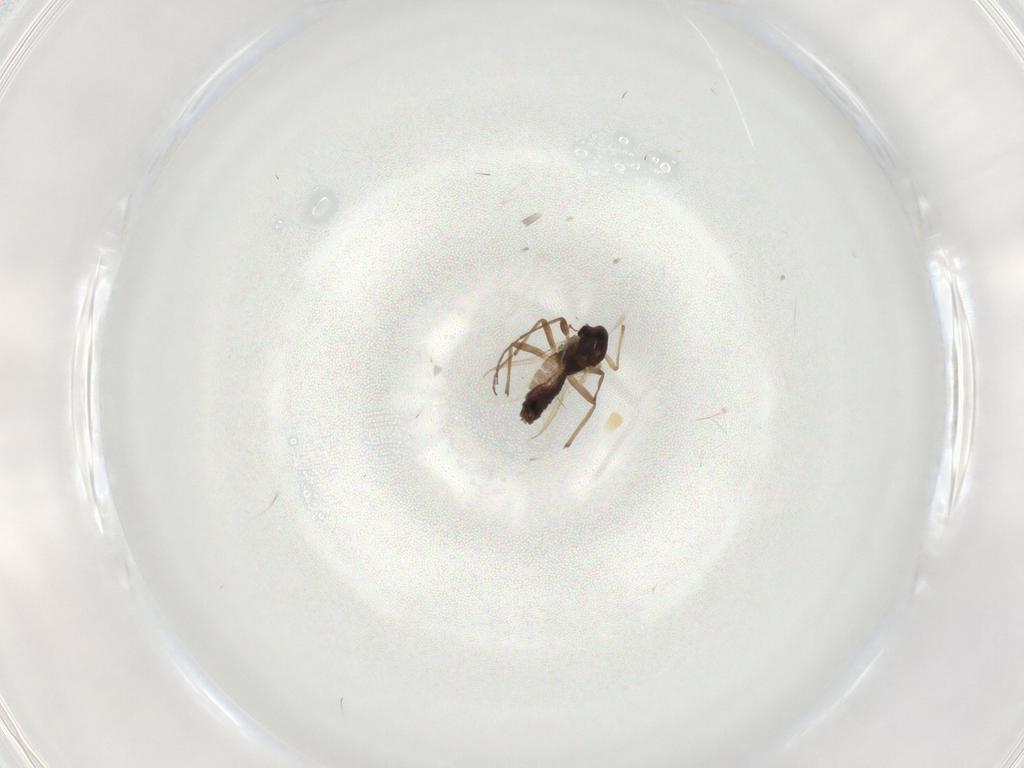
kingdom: Animalia
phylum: Arthropoda
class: Insecta
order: Diptera
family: Chironomidae
